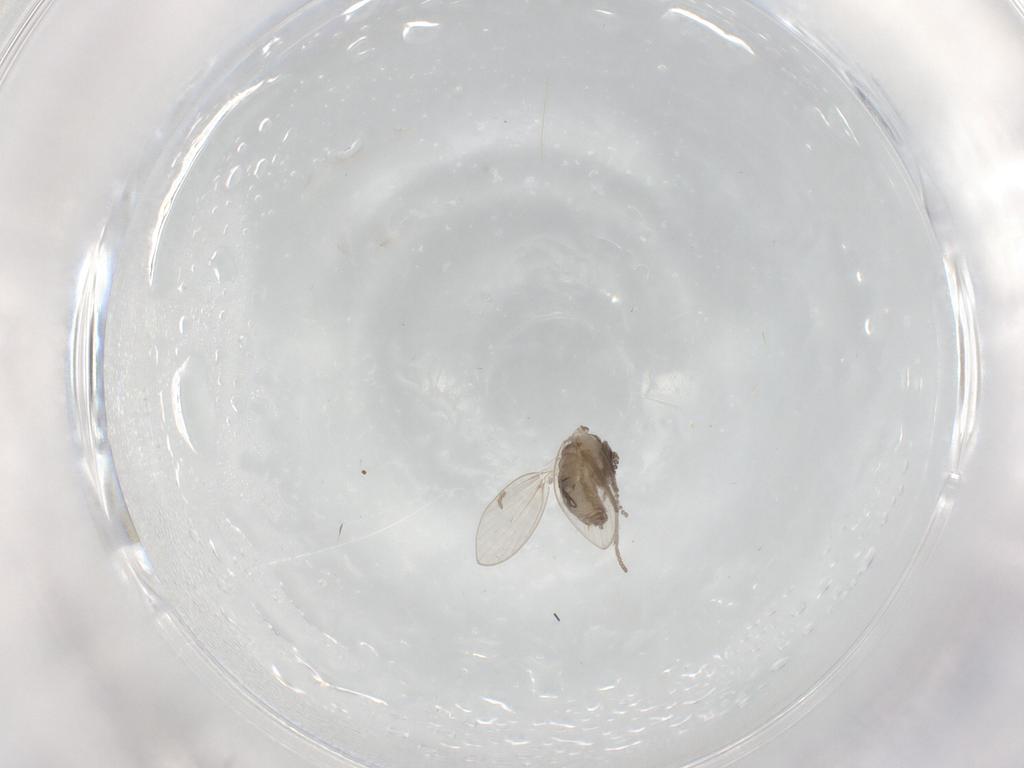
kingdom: Animalia
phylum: Arthropoda
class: Insecta
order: Diptera
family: Psychodidae
